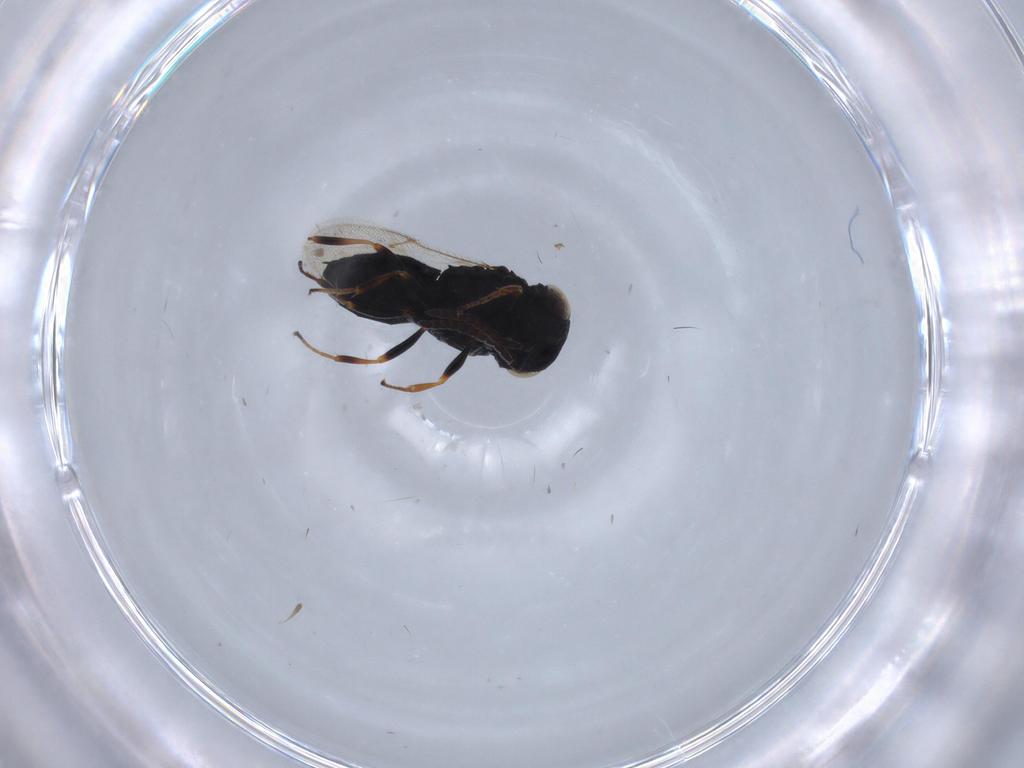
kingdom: Animalia
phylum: Arthropoda
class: Insecta
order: Hymenoptera
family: Scelionidae
